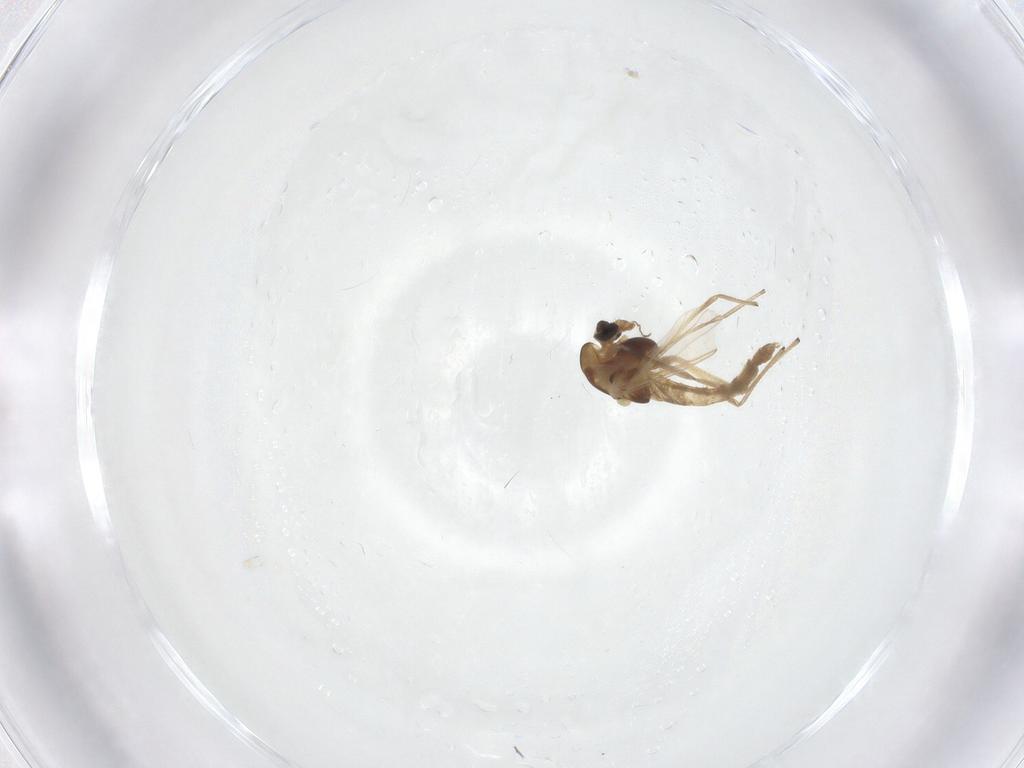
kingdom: Animalia
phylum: Arthropoda
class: Insecta
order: Diptera
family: Chironomidae
